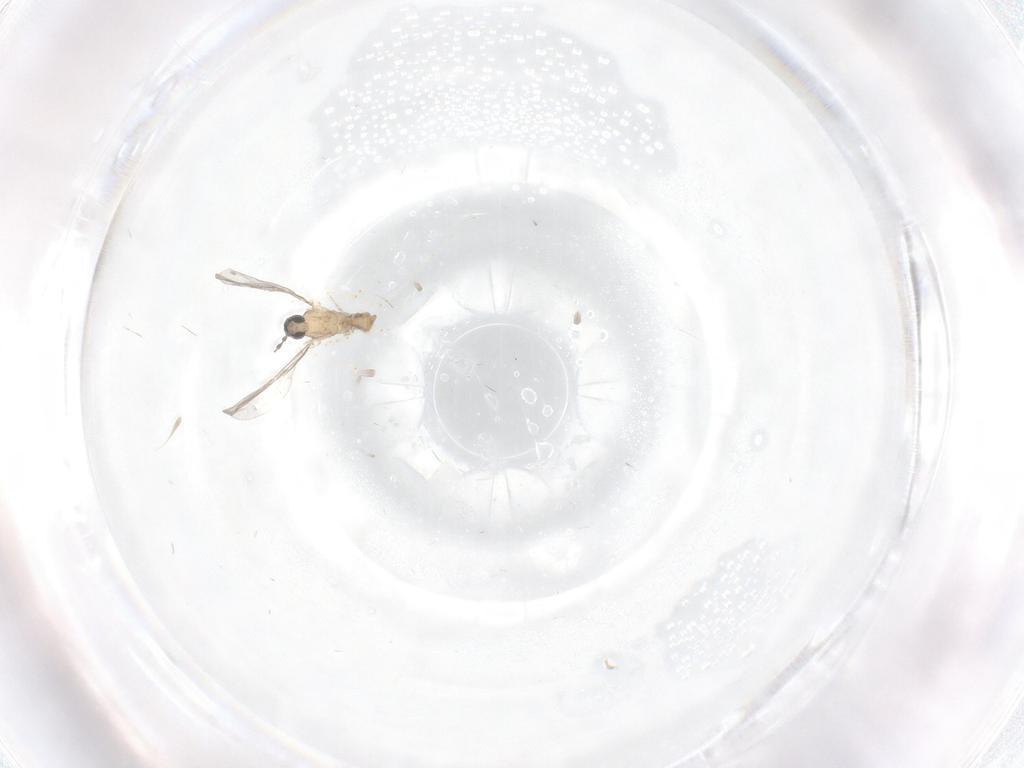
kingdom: Animalia
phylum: Arthropoda
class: Insecta
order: Diptera
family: Cecidomyiidae
